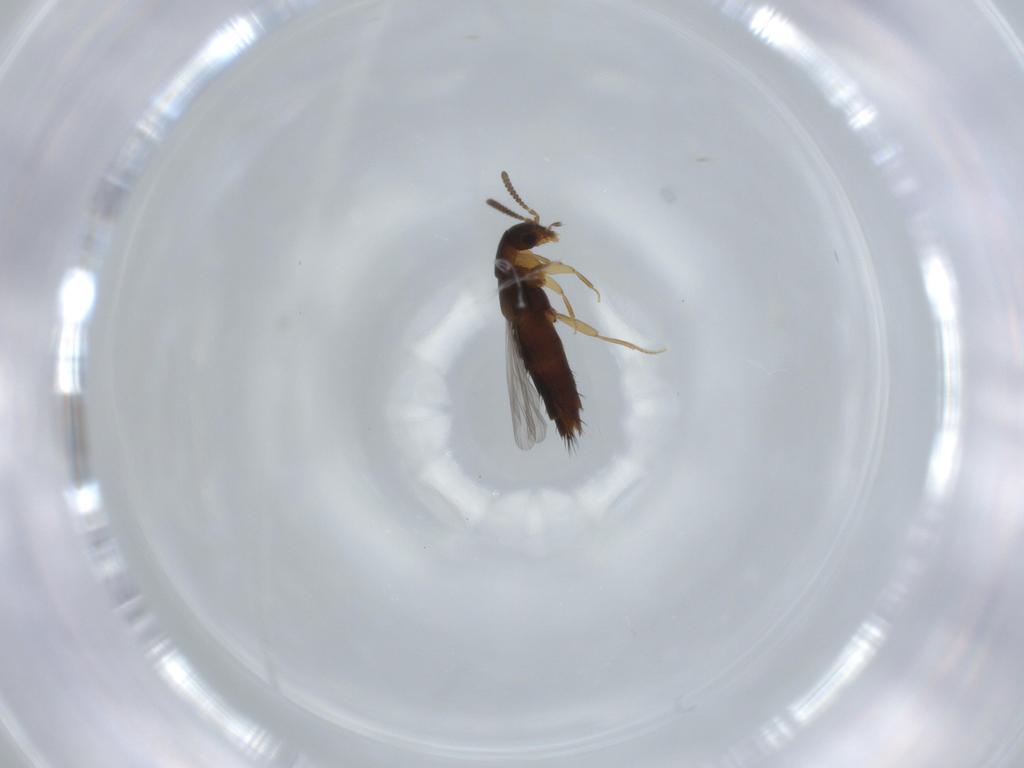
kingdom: Animalia
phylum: Arthropoda
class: Insecta
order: Coleoptera
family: Staphylinidae
